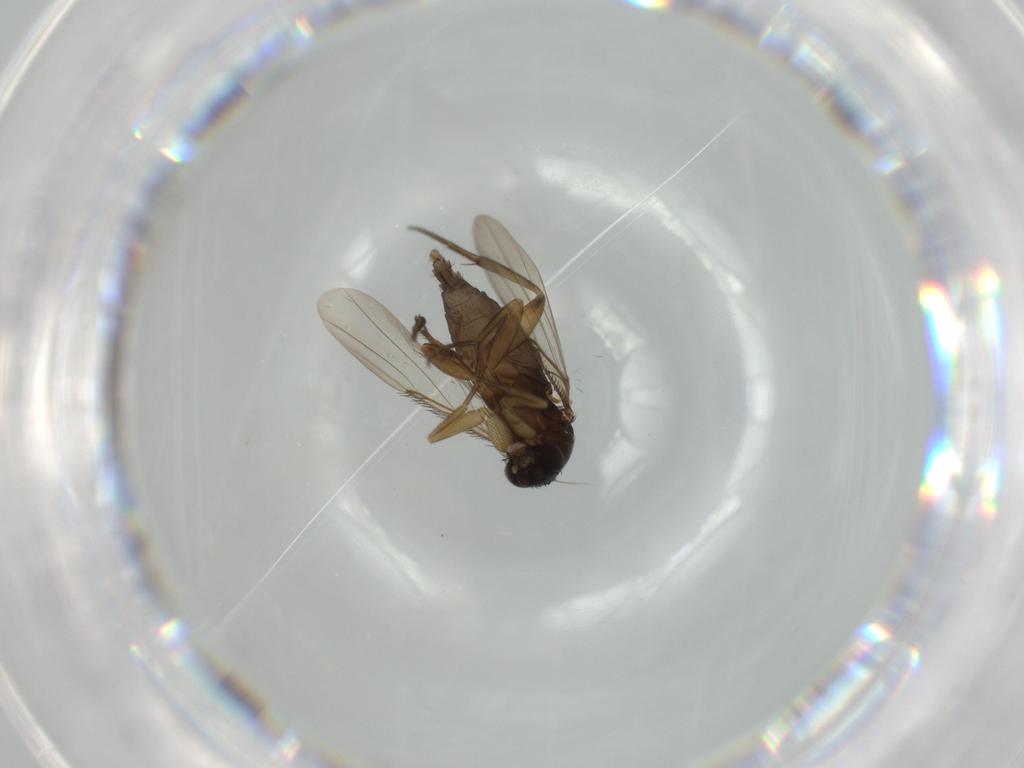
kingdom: Animalia
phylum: Arthropoda
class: Insecta
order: Diptera
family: Phoridae
